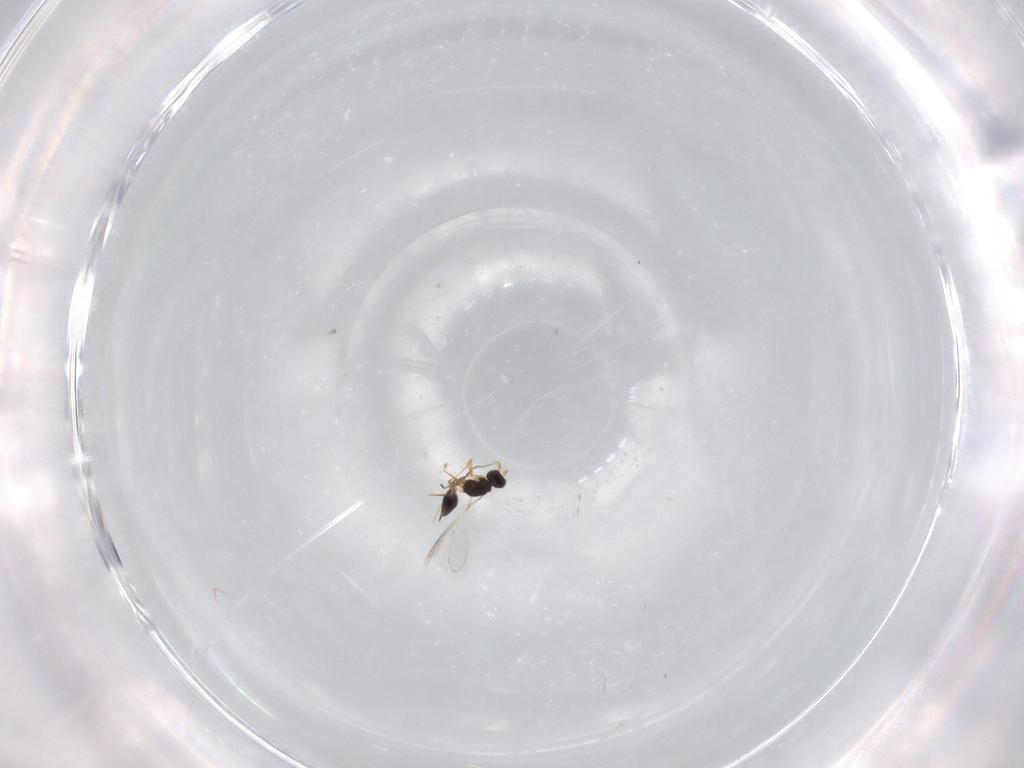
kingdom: Animalia
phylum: Arthropoda
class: Insecta
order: Hymenoptera
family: Mymaridae
